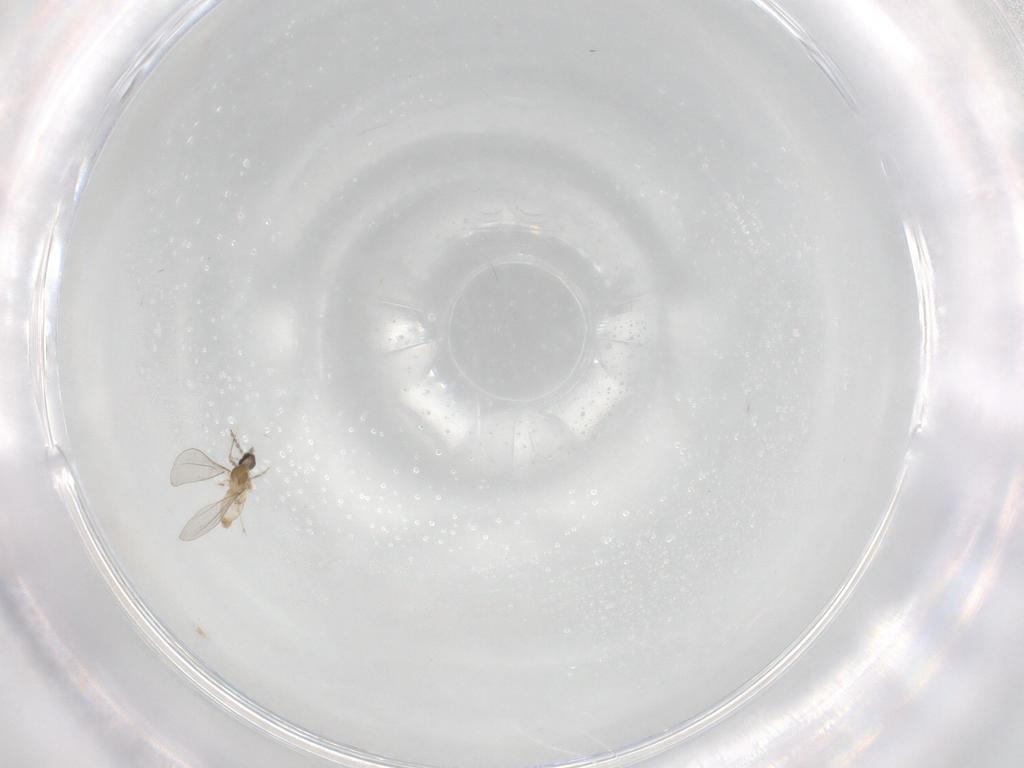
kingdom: Animalia
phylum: Arthropoda
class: Insecta
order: Diptera
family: Cecidomyiidae
